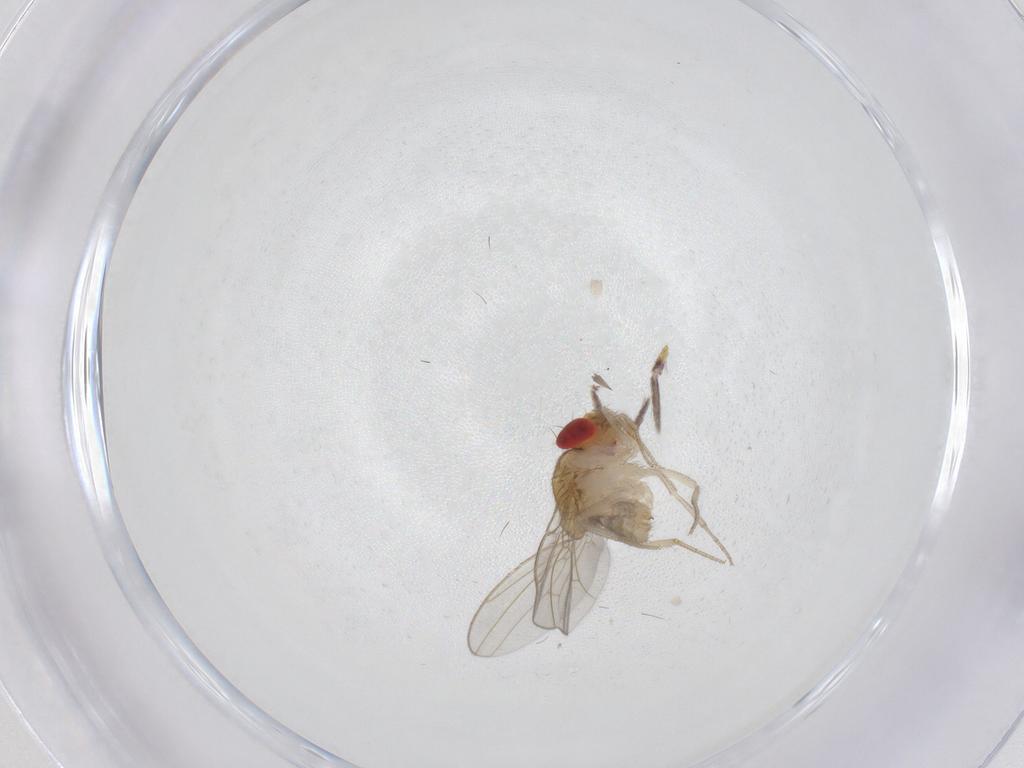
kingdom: Animalia
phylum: Arthropoda
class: Insecta
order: Diptera
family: Drosophilidae
